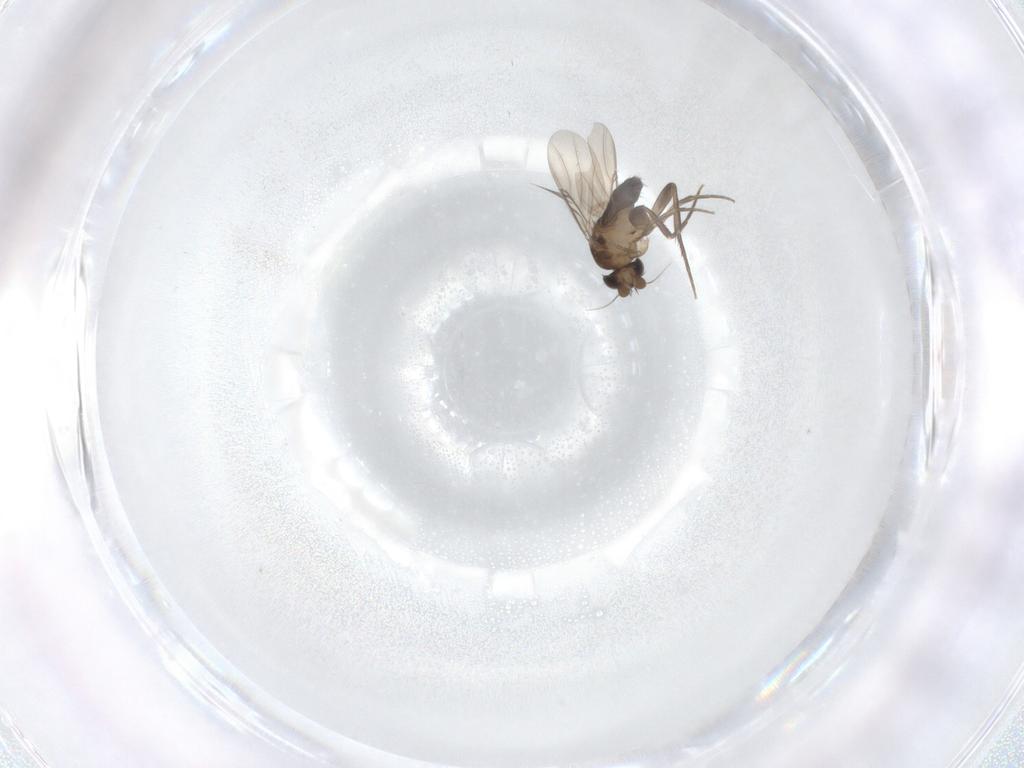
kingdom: Animalia
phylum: Arthropoda
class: Insecta
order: Diptera
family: Phoridae
